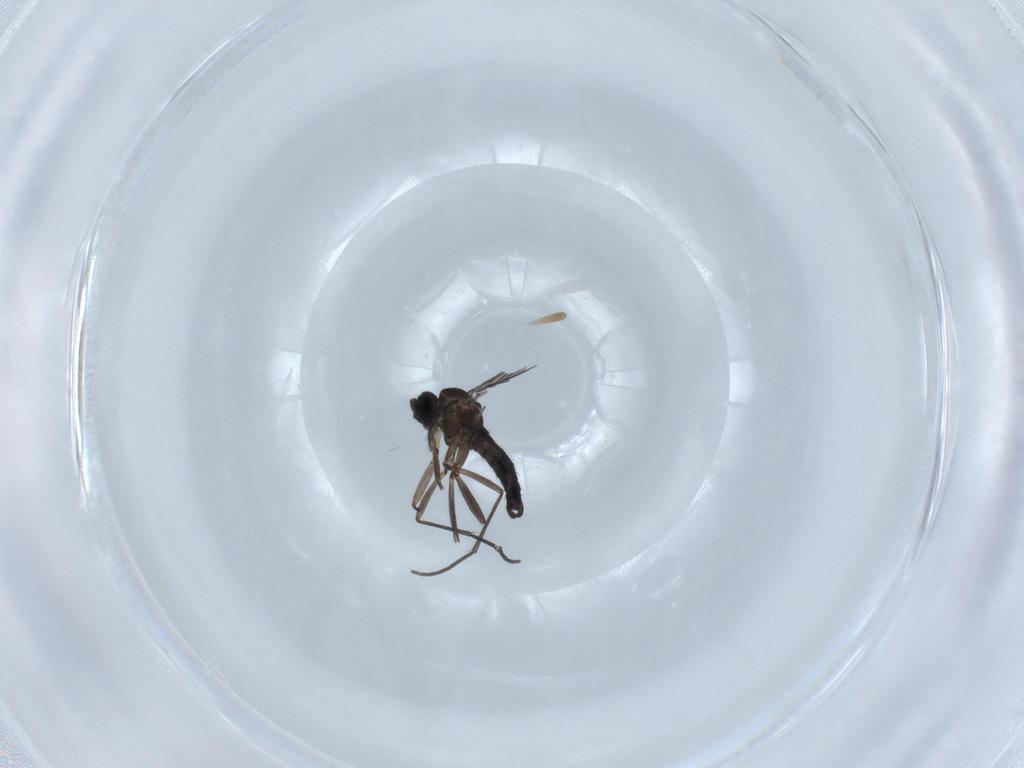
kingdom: Animalia
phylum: Arthropoda
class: Insecta
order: Diptera
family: Sciaridae
